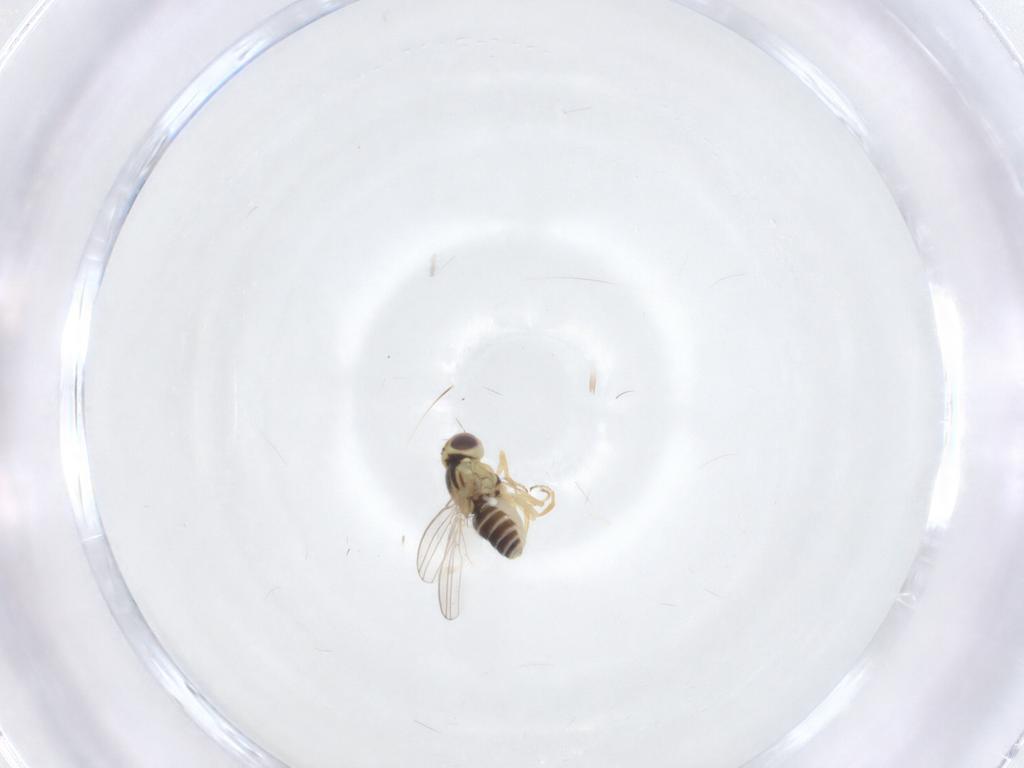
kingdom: Animalia
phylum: Arthropoda
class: Insecta
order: Diptera
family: Chyromyidae
